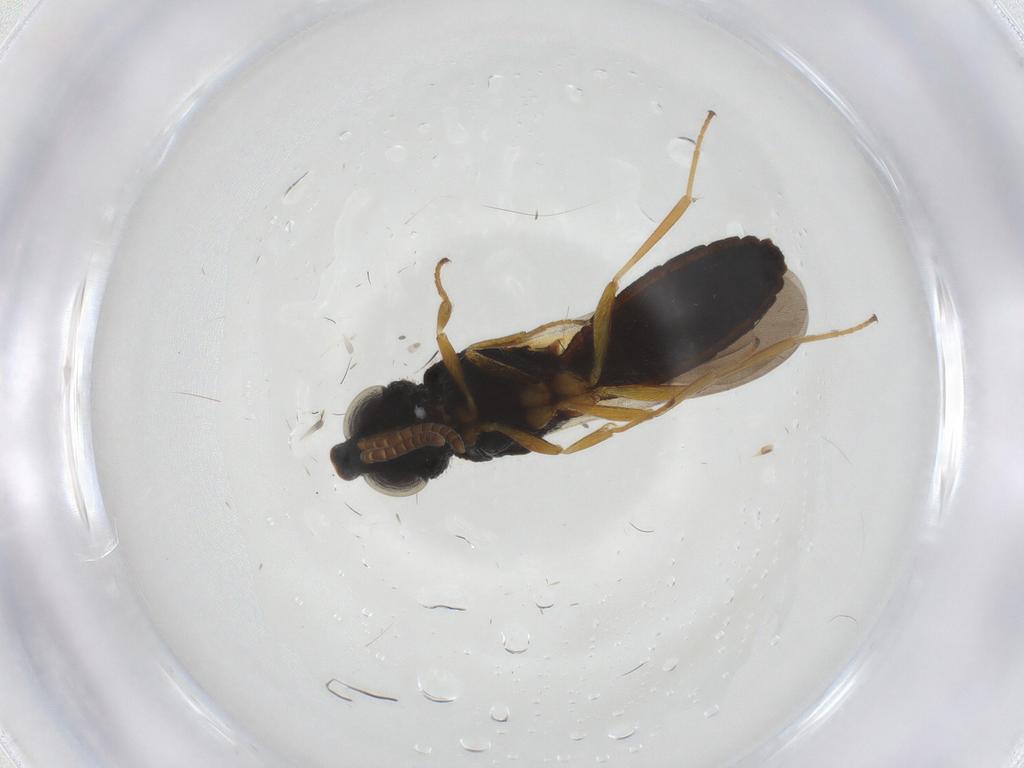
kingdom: Animalia
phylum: Arthropoda
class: Insecta
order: Hymenoptera
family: Scelionidae
